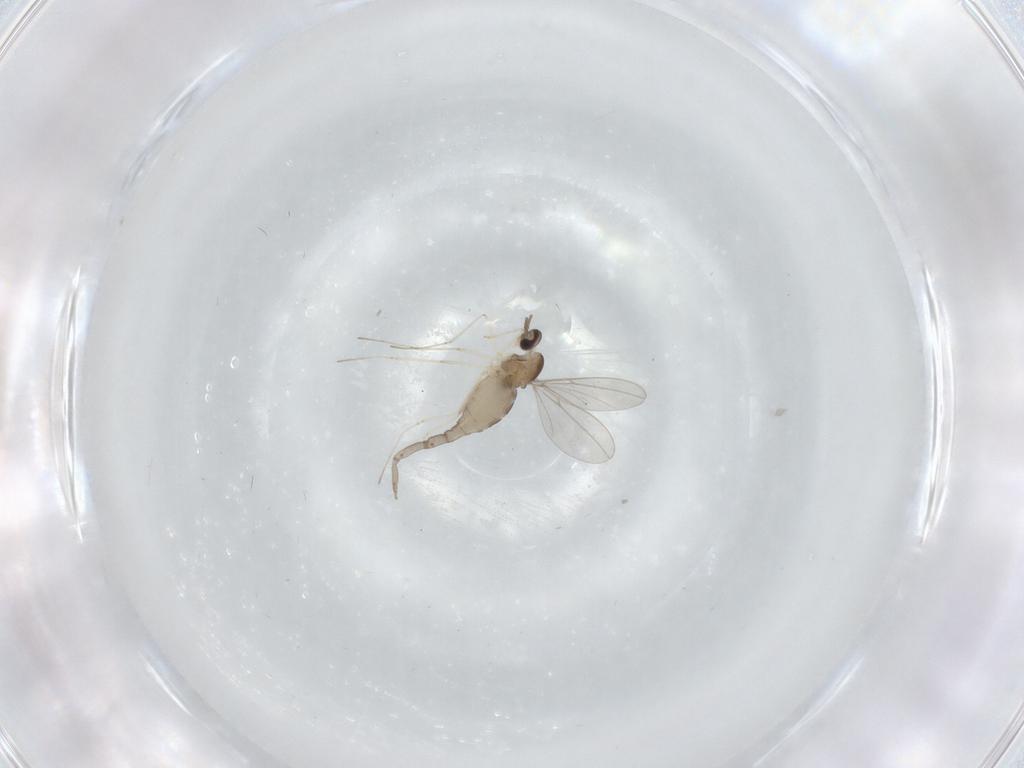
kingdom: Animalia
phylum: Arthropoda
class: Insecta
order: Diptera
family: Cecidomyiidae
